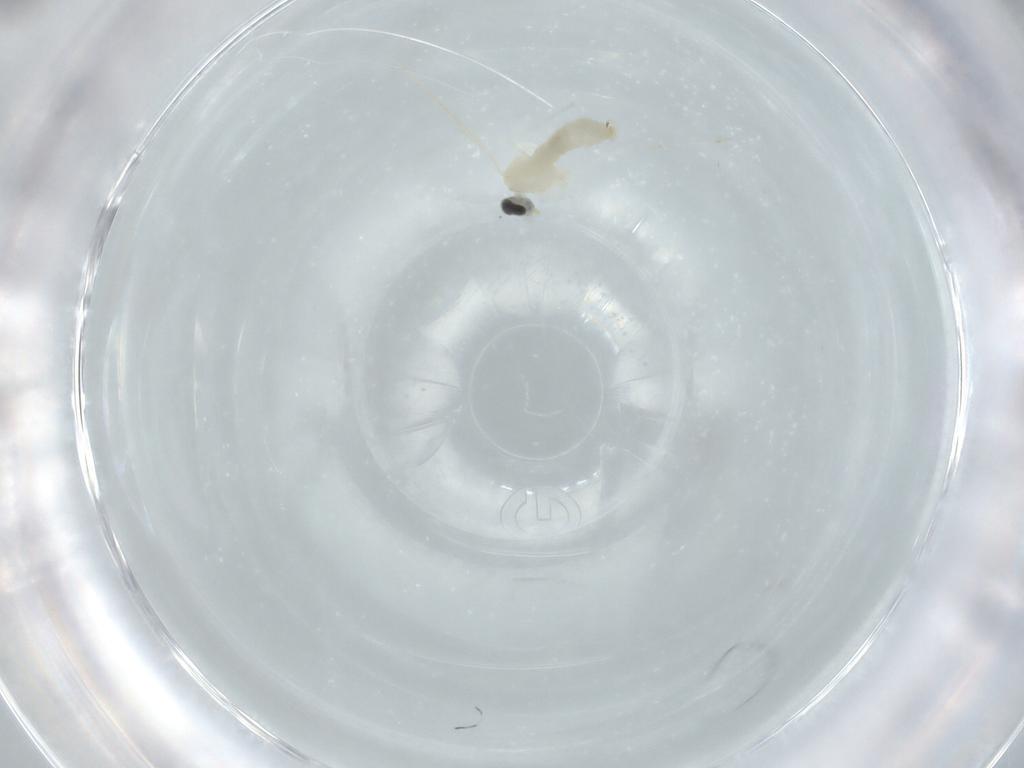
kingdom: Animalia
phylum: Arthropoda
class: Insecta
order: Diptera
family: Cecidomyiidae
